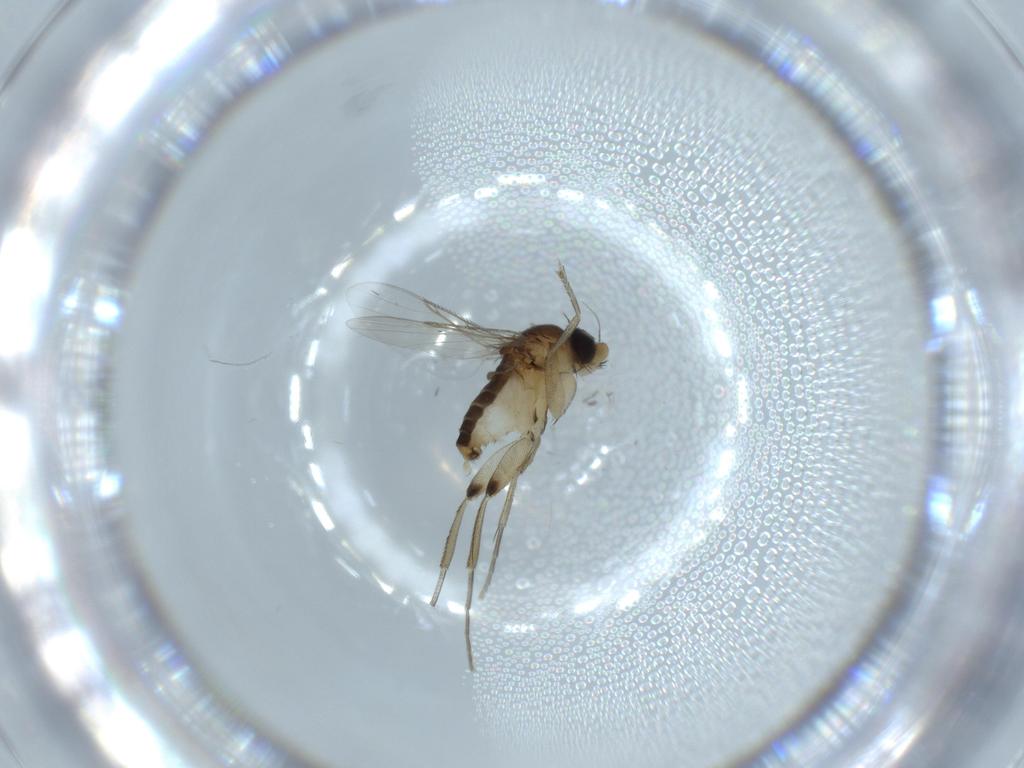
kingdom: Animalia
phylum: Arthropoda
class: Insecta
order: Diptera
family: Phoridae
